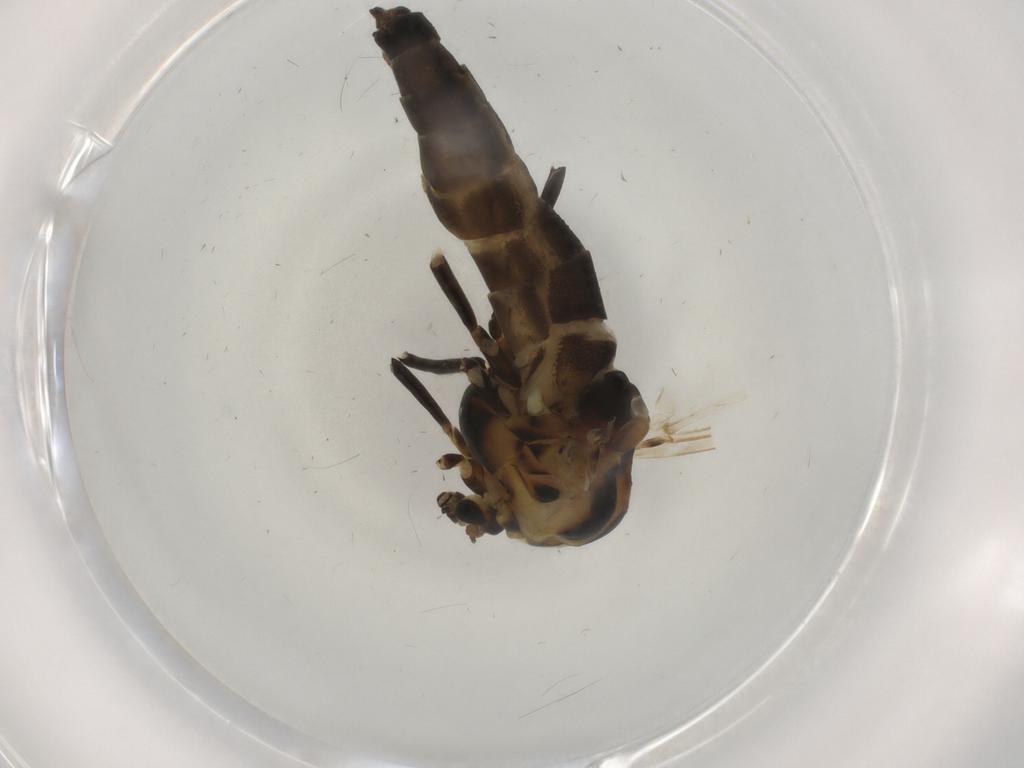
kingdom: Animalia
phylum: Arthropoda
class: Insecta
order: Diptera
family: Chironomidae
